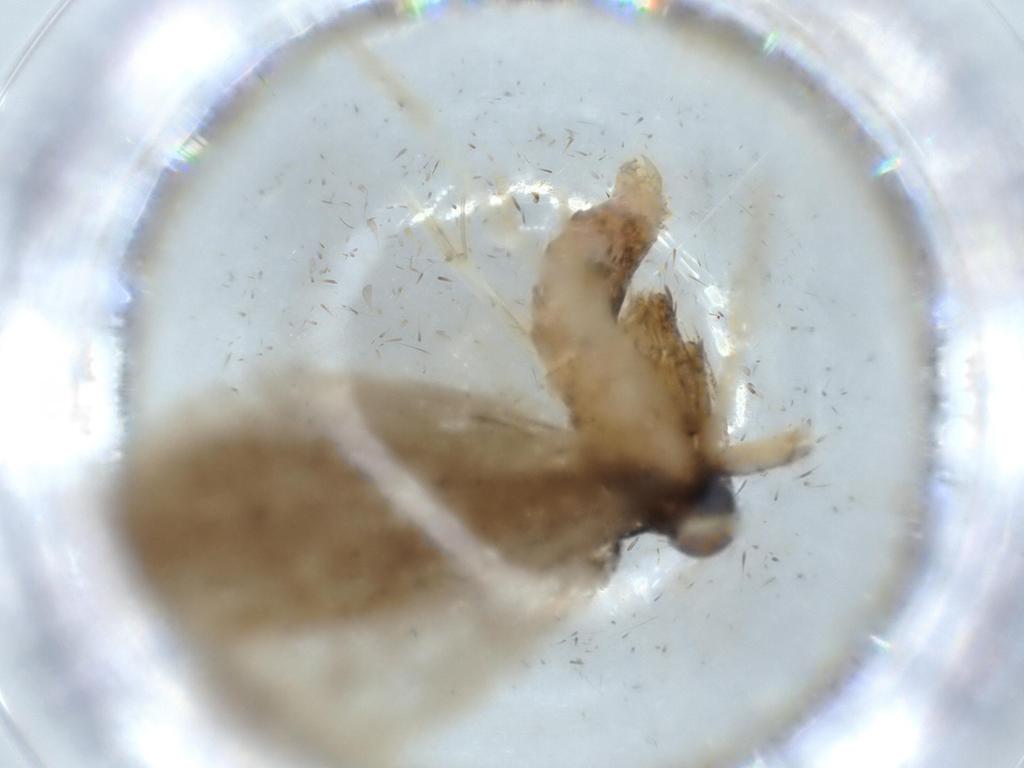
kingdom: Animalia
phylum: Arthropoda
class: Insecta
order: Lepidoptera
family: Lecithoceridae
